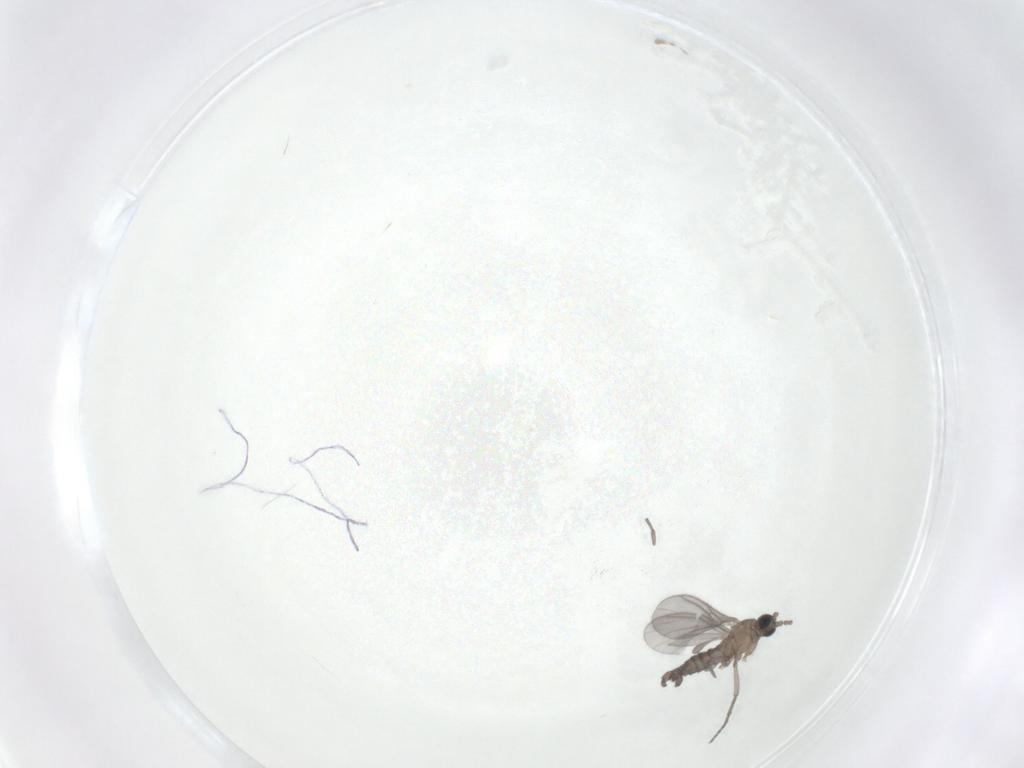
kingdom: Animalia
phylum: Arthropoda
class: Insecta
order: Diptera
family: Sciaridae
